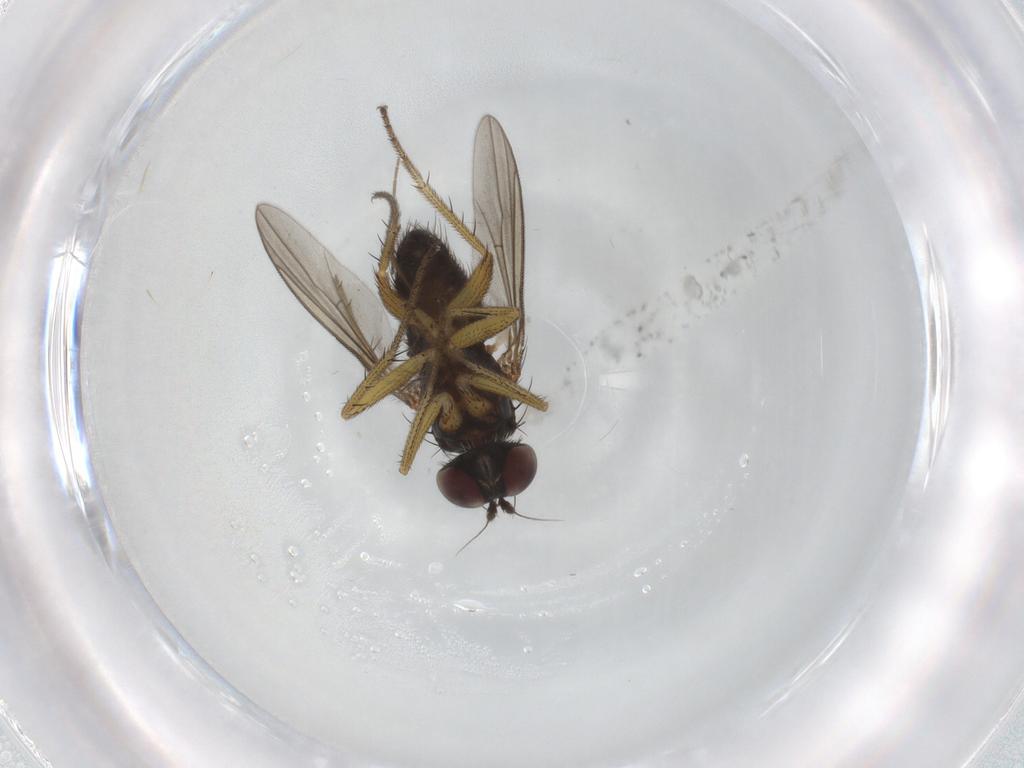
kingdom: Animalia
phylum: Arthropoda
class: Insecta
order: Diptera
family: Dolichopodidae
